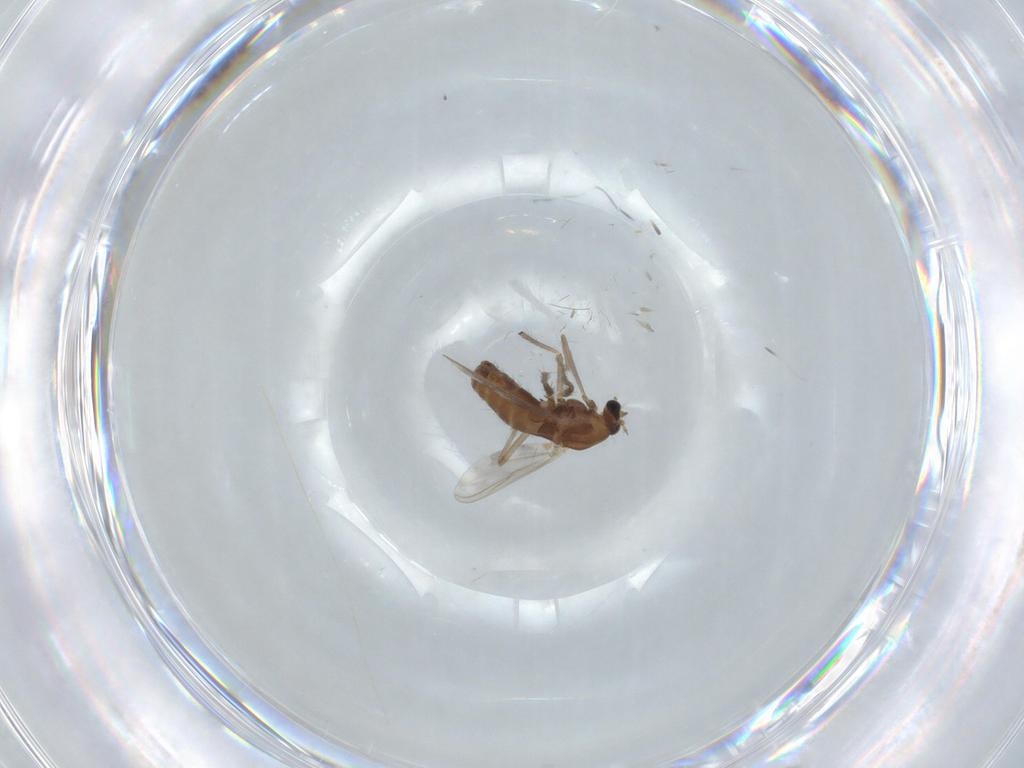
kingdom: Animalia
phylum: Arthropoda
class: Insecta
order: Diptera
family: Chironomidae
